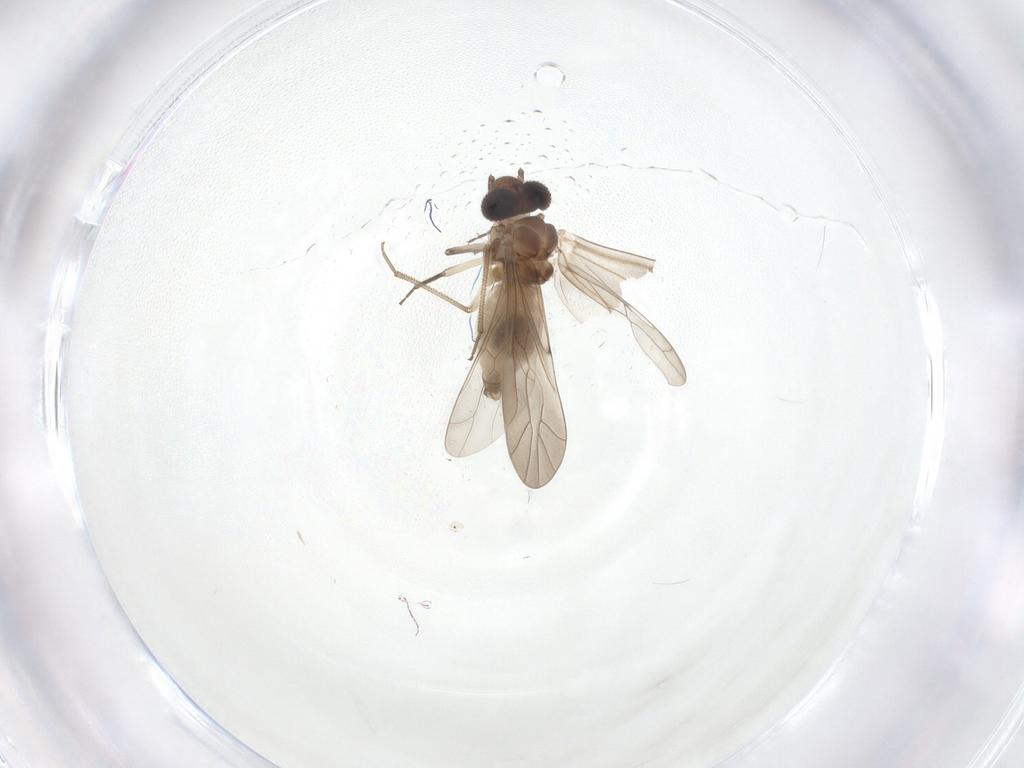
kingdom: Animalia
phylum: Arthropoda
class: Insecta
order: Psocodea
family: Peripsocidae
